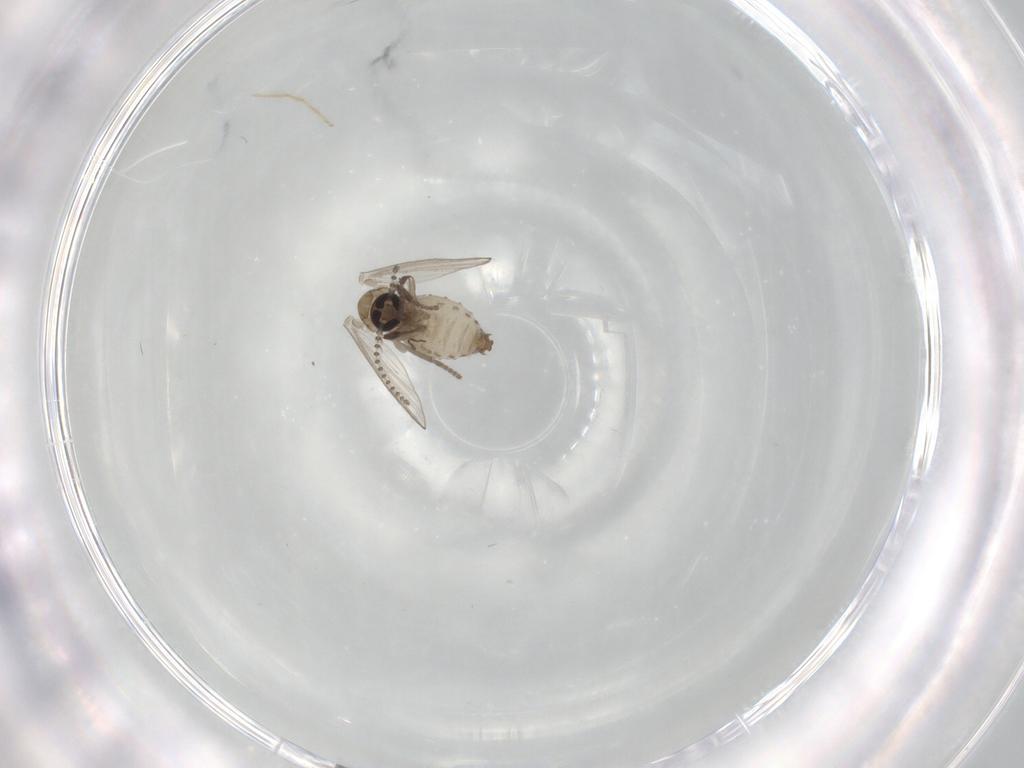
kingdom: Animalia
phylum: Arthropoda
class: Insecta
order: Diptera
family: Psychodidae
